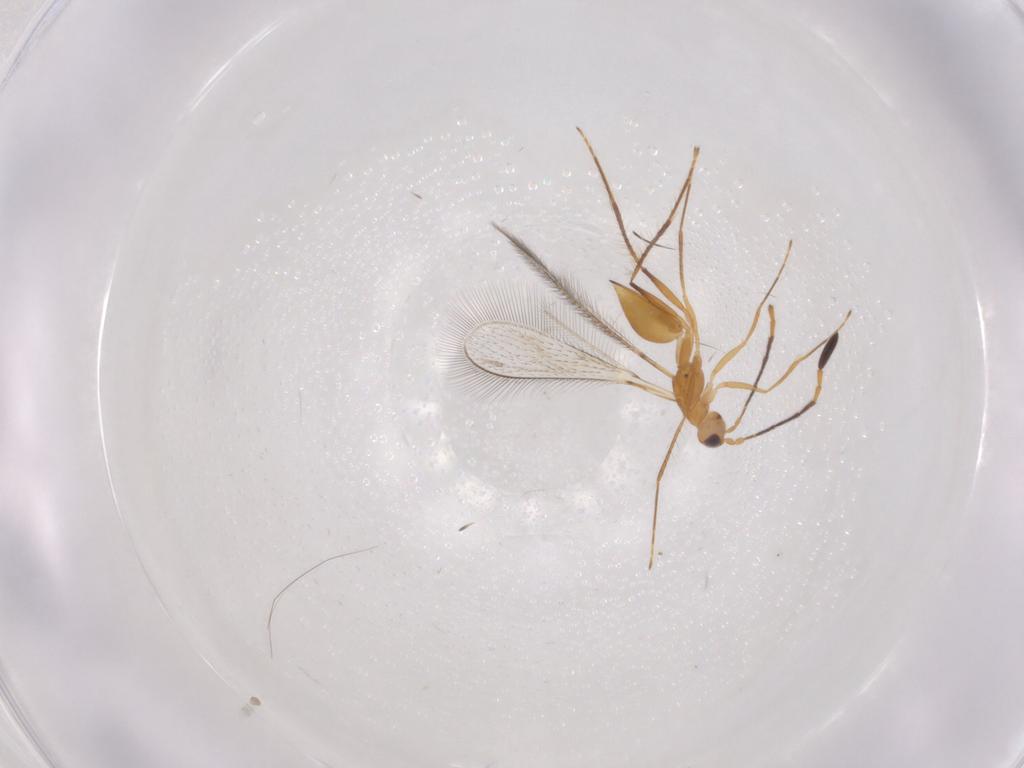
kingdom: Animalia
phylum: Arthropoda
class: Insecta
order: Hymenoptera
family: Mymaridae
